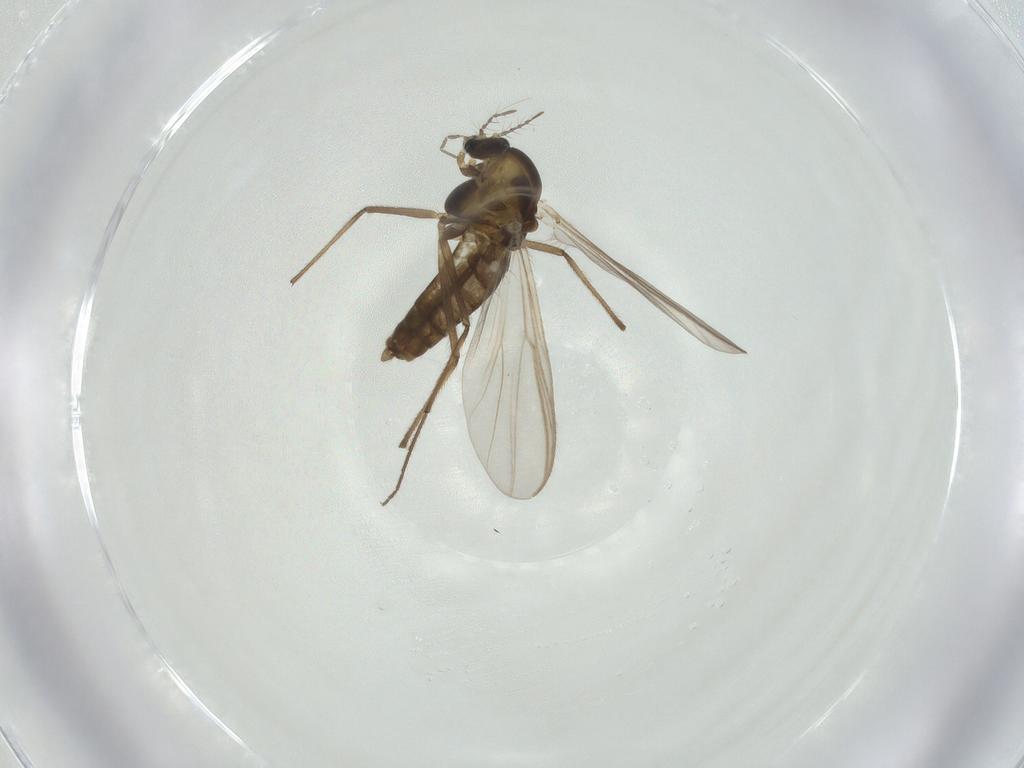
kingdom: Animalia
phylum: Arthropoda
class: Insecta
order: Diptera
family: Chironomidae
